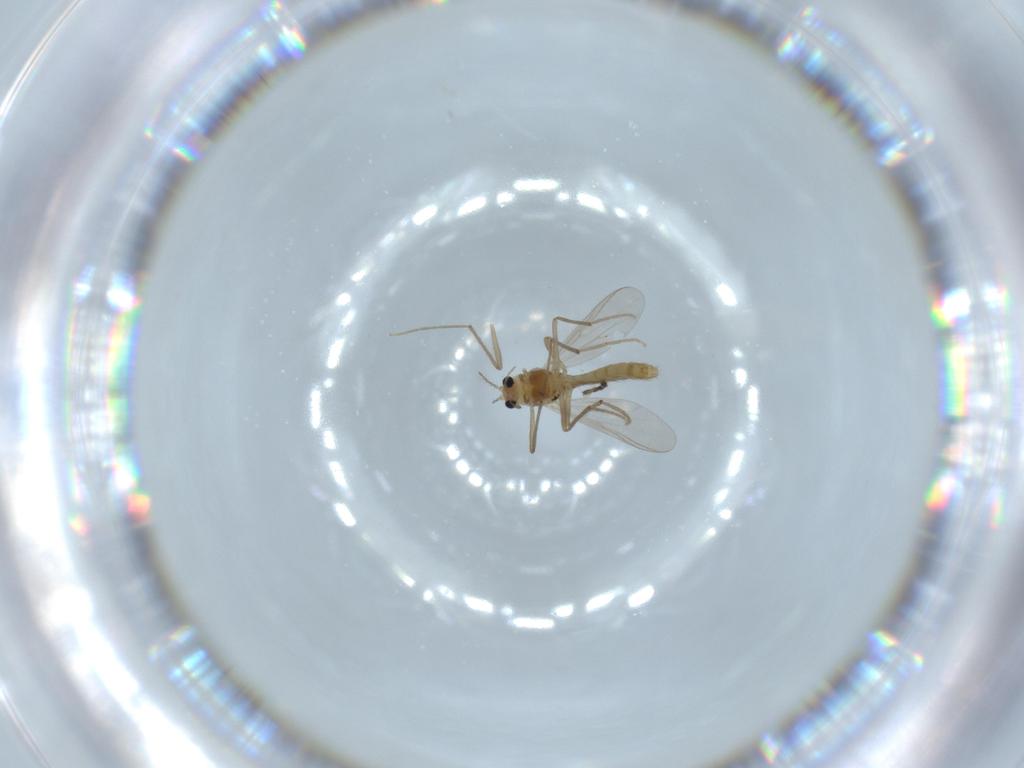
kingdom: Animalia
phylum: Arthropoda
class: Insecta
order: Diptera
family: Chironomidae
